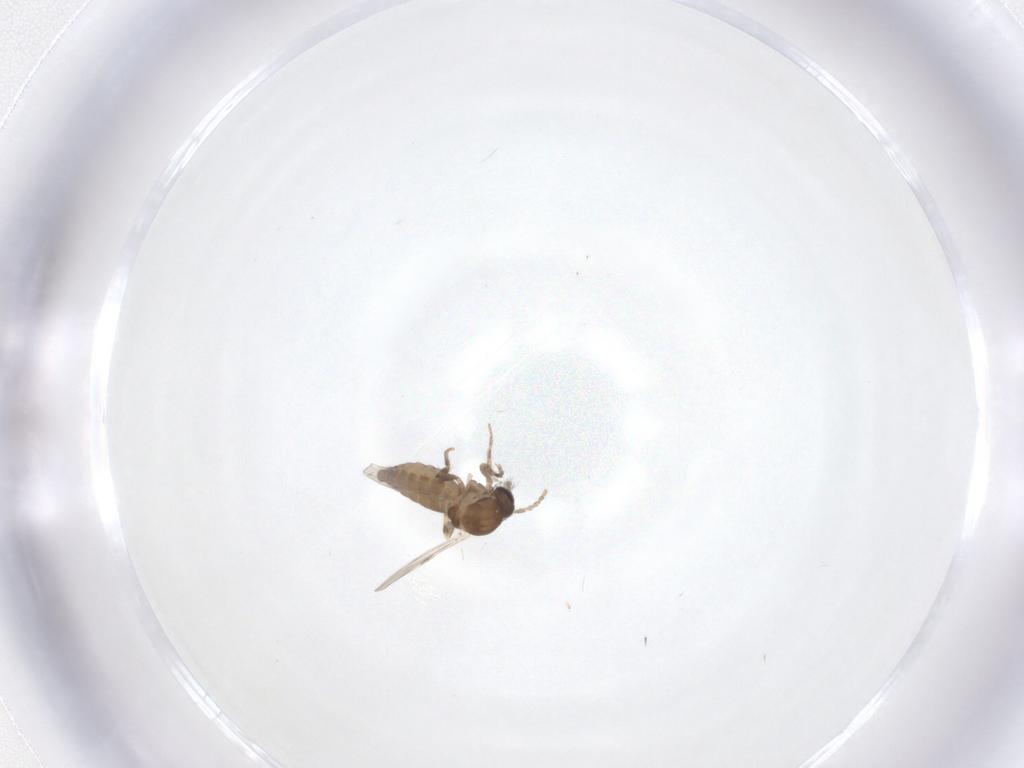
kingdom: Animalia
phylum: Arthropoda
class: Insecta
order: Diptera
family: Ceratopogonidae
